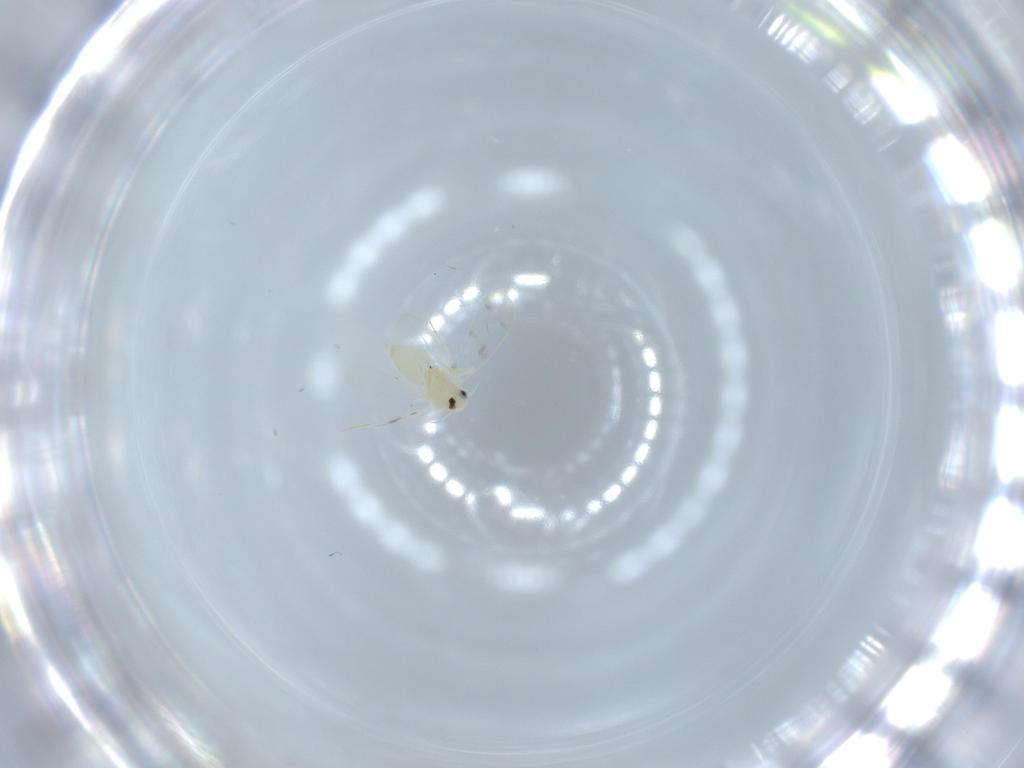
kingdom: Animalia
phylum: Arthropoda
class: Insecta
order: Hemiptera
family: Aleyrodidae
